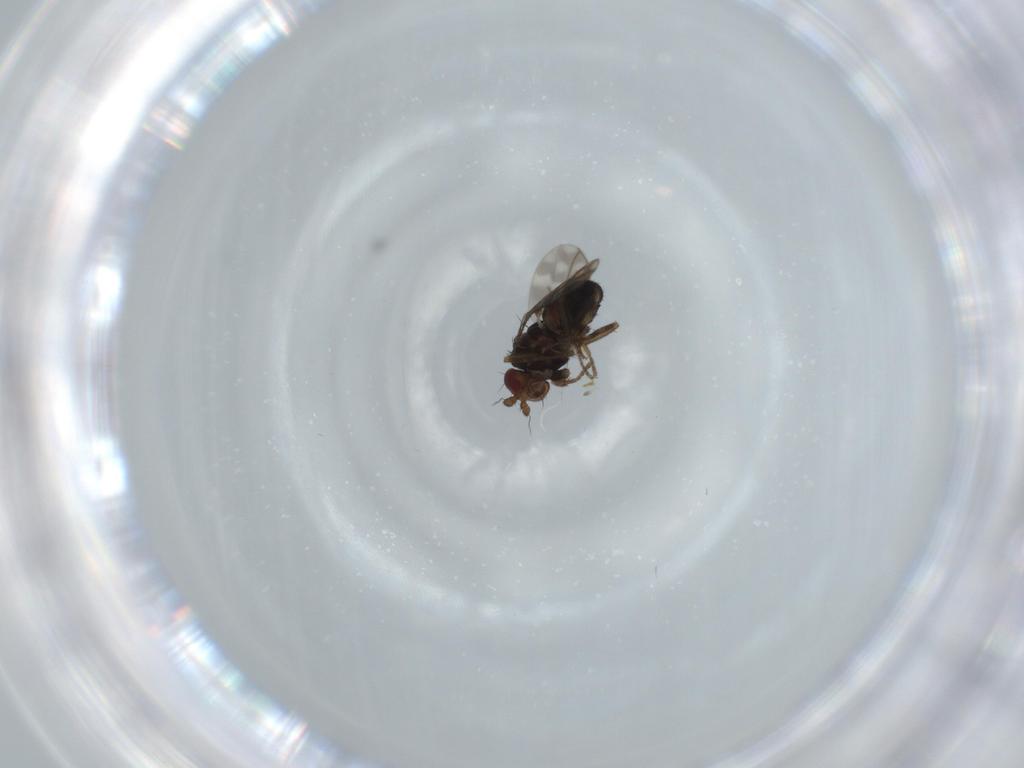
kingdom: Animalia
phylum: Arthropoda
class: Insecta
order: Diptera
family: Sphaeroceridae
